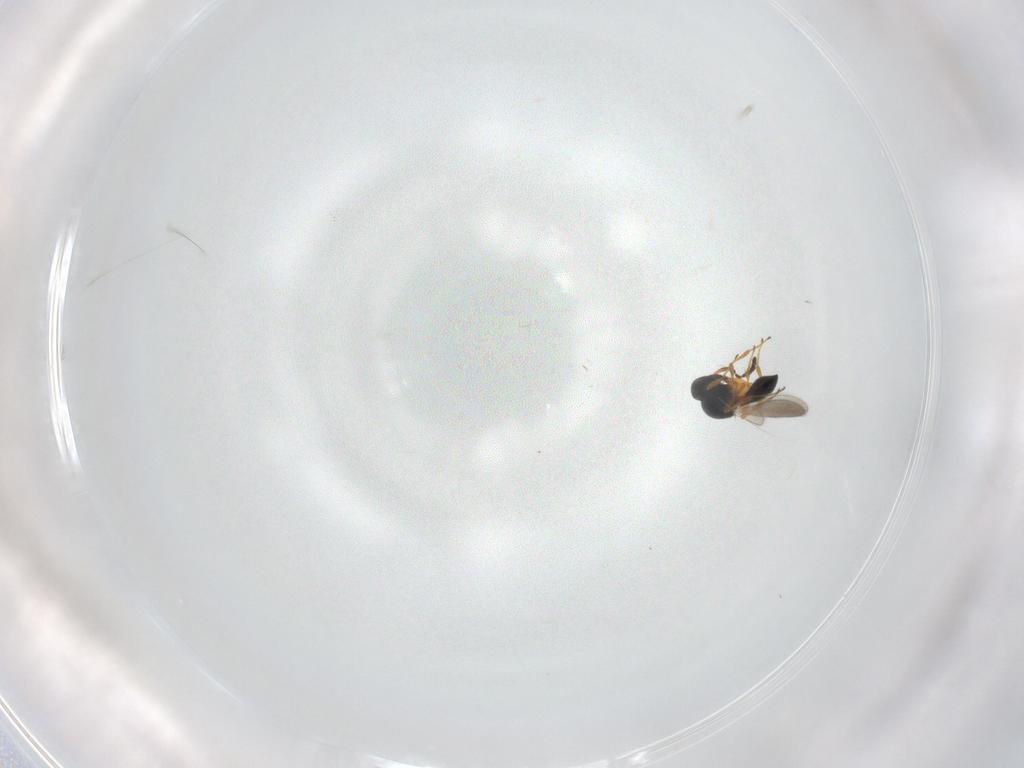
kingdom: Animalia
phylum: Arthropoda
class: Insecta
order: Hymenoptera
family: Platygastridae
